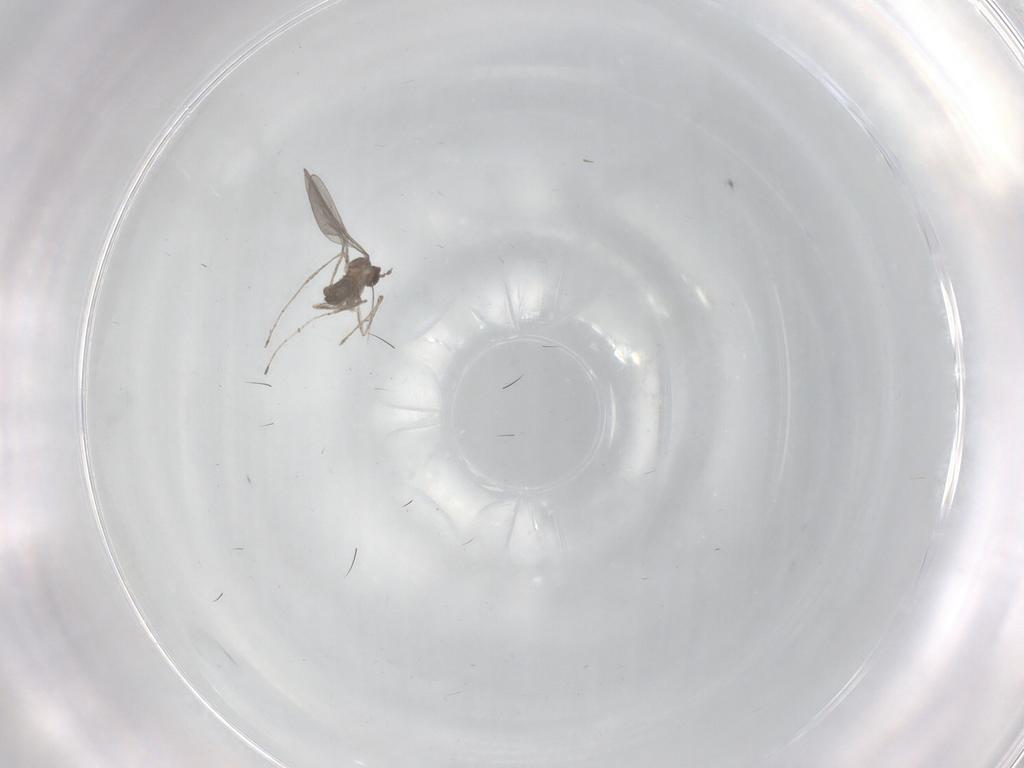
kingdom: Animalia
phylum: Arthropoda
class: Insecta
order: Diptera
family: Cecidomyiidae
